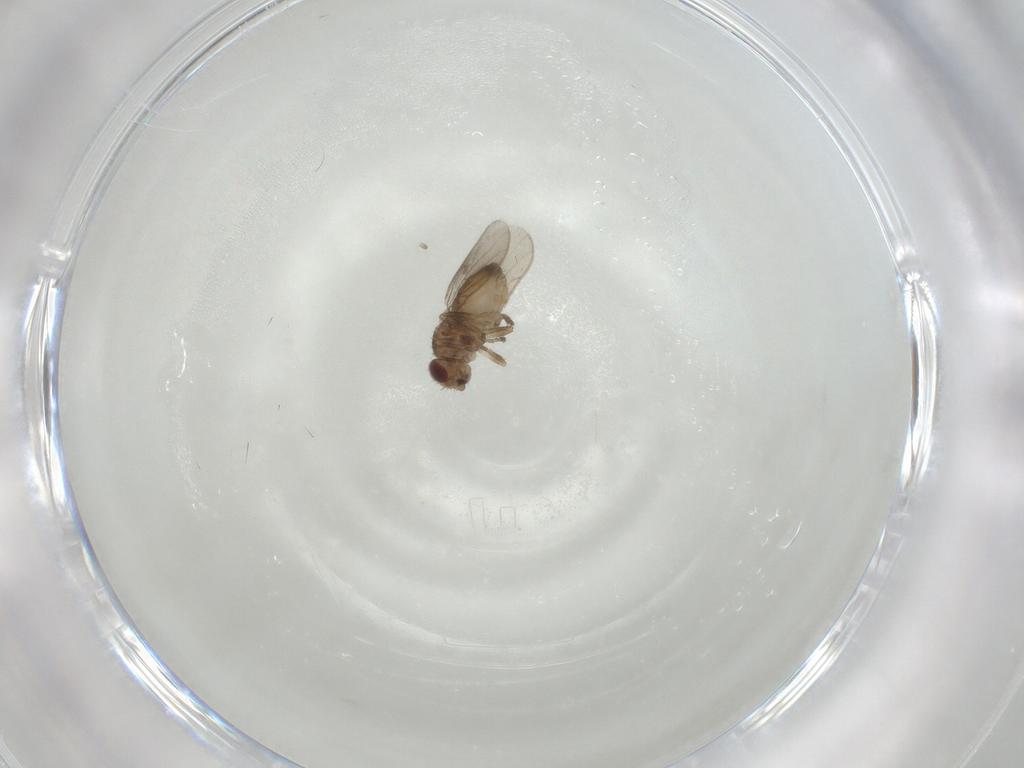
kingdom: Animalia
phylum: Arthropoda
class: Insecta
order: Diptera
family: Chloropidae
